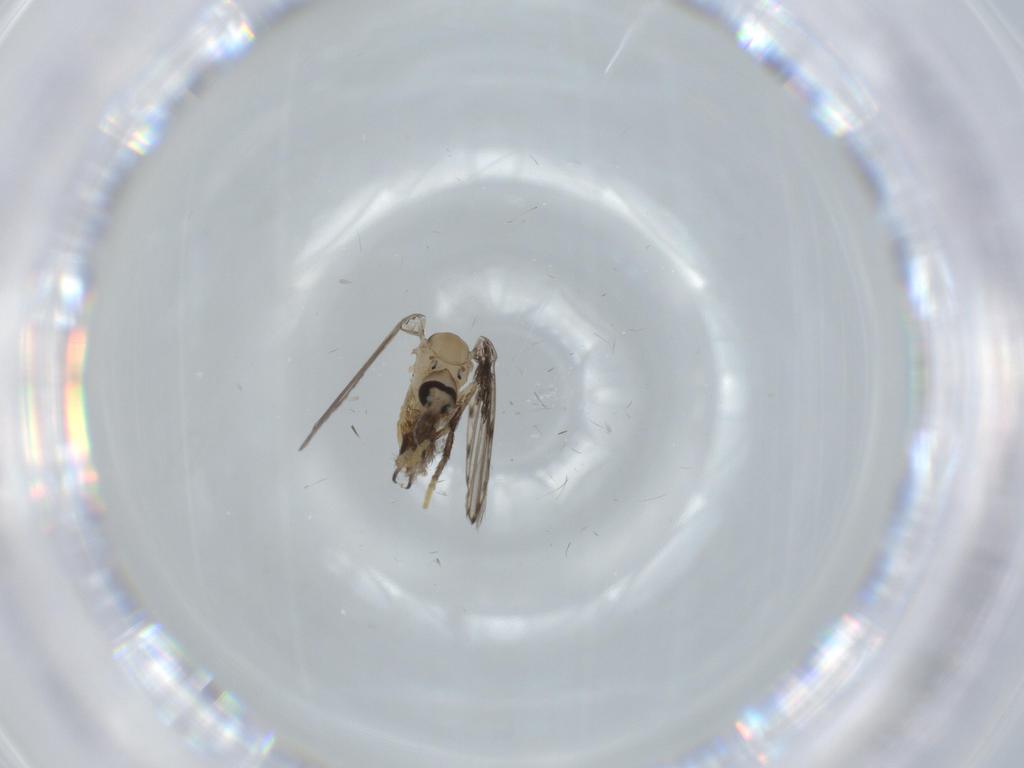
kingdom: Animalia
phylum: Arthropoda
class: Insecta
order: Diptera
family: Psychodidae
